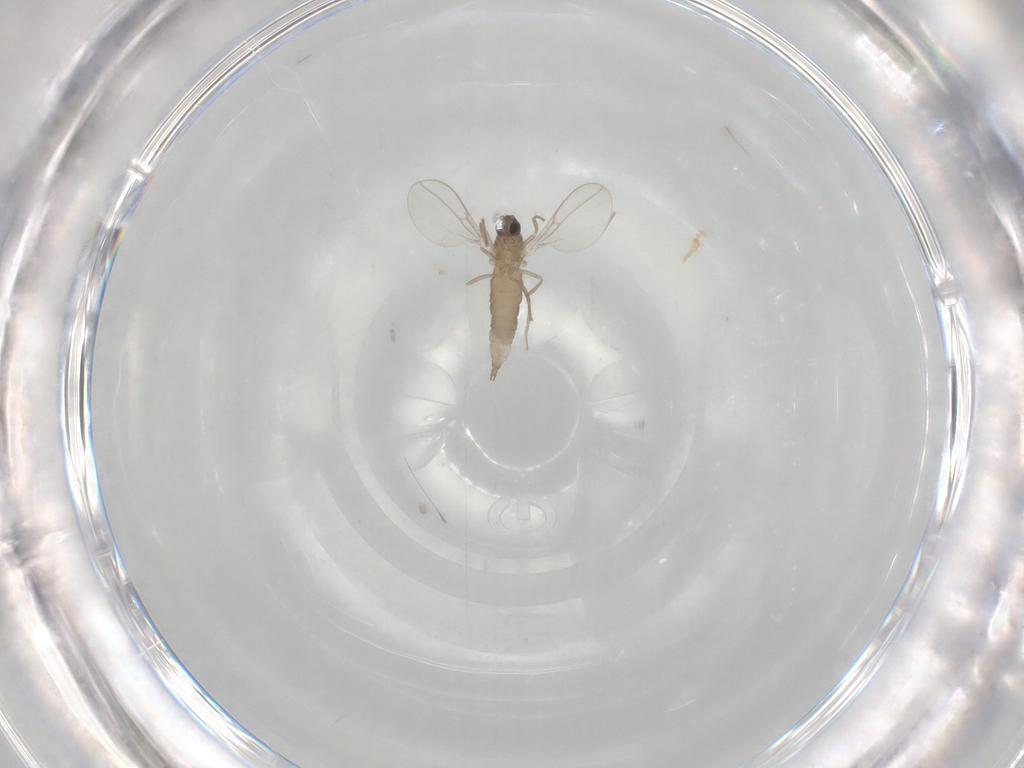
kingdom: Animalia
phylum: Arthropoda
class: Insecta
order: Diptera
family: Cecidomyiidae
